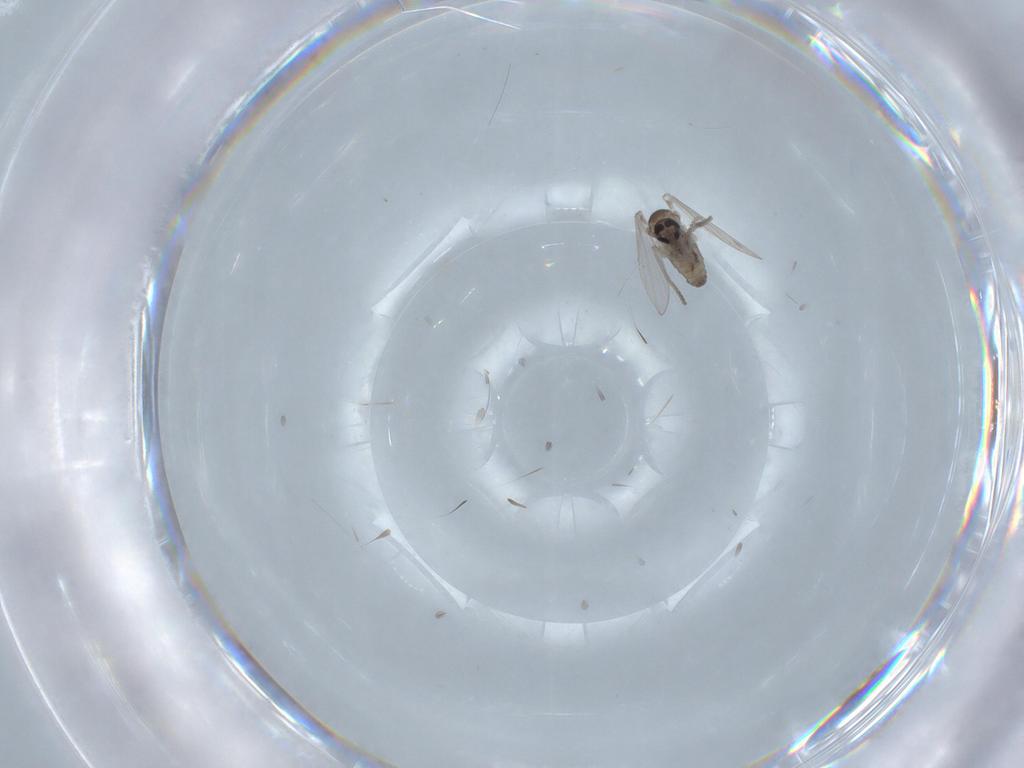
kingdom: Animalia
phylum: Arthropoda
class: Insecta
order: Diptera
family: Psychodidae
